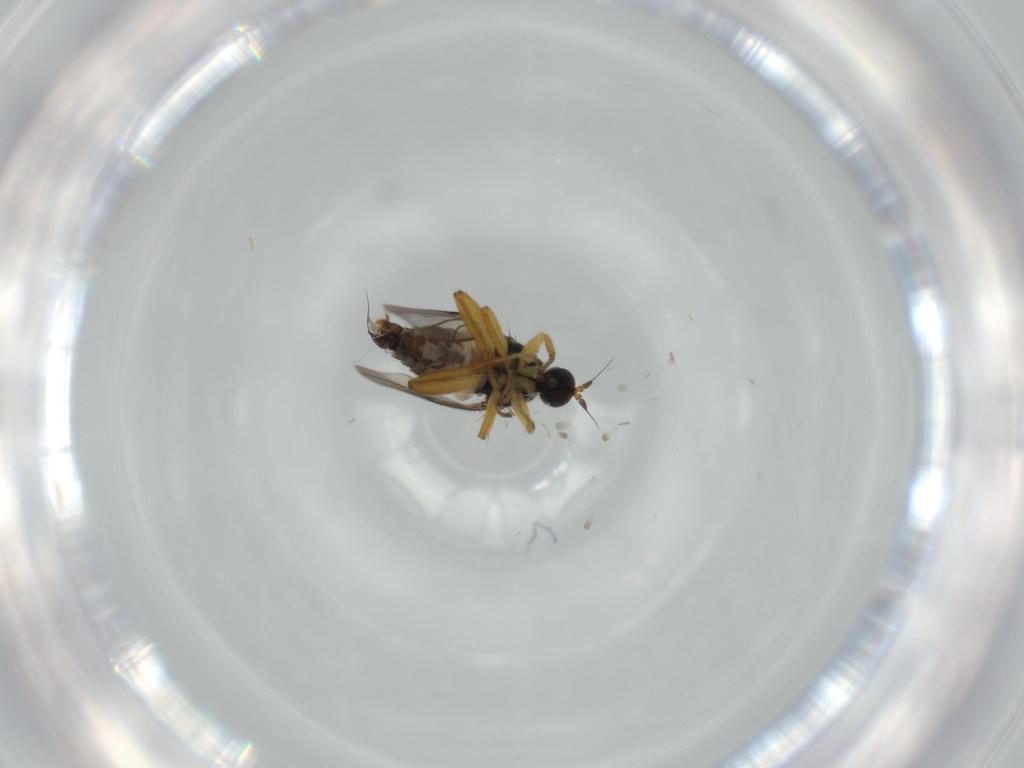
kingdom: Animalia
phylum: Arthropoda
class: Insecta
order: Diptera
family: Hybotidae
